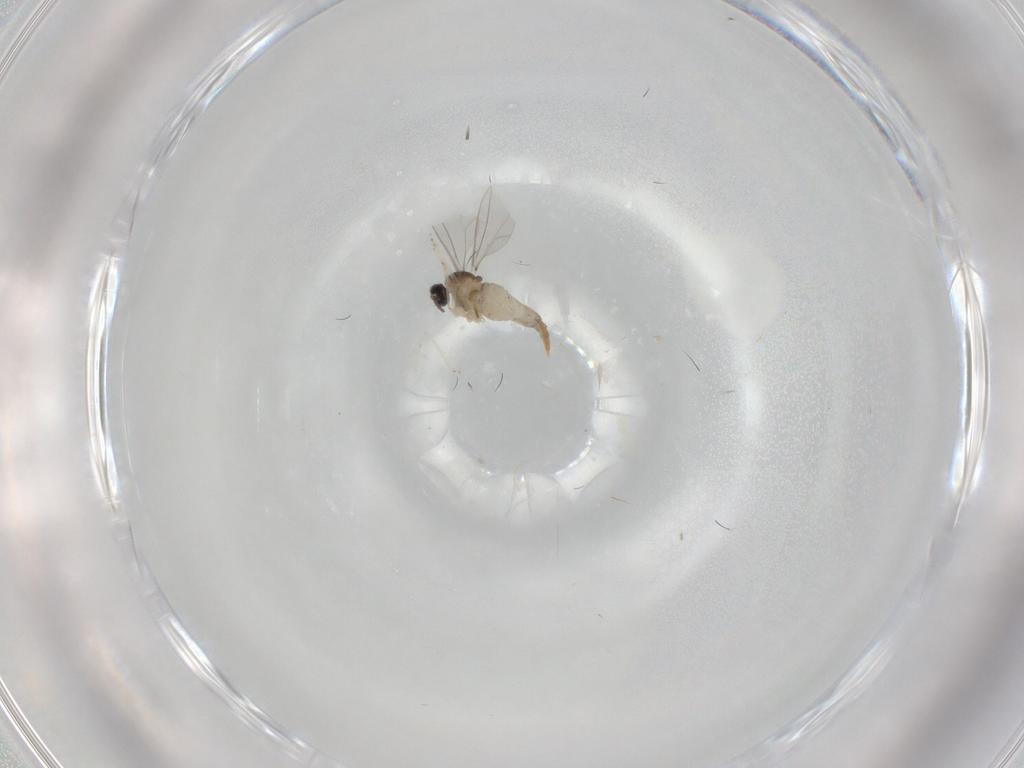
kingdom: Animalia
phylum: Arthropoda
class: Insecta
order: Diptera
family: Cecidomyiidae
